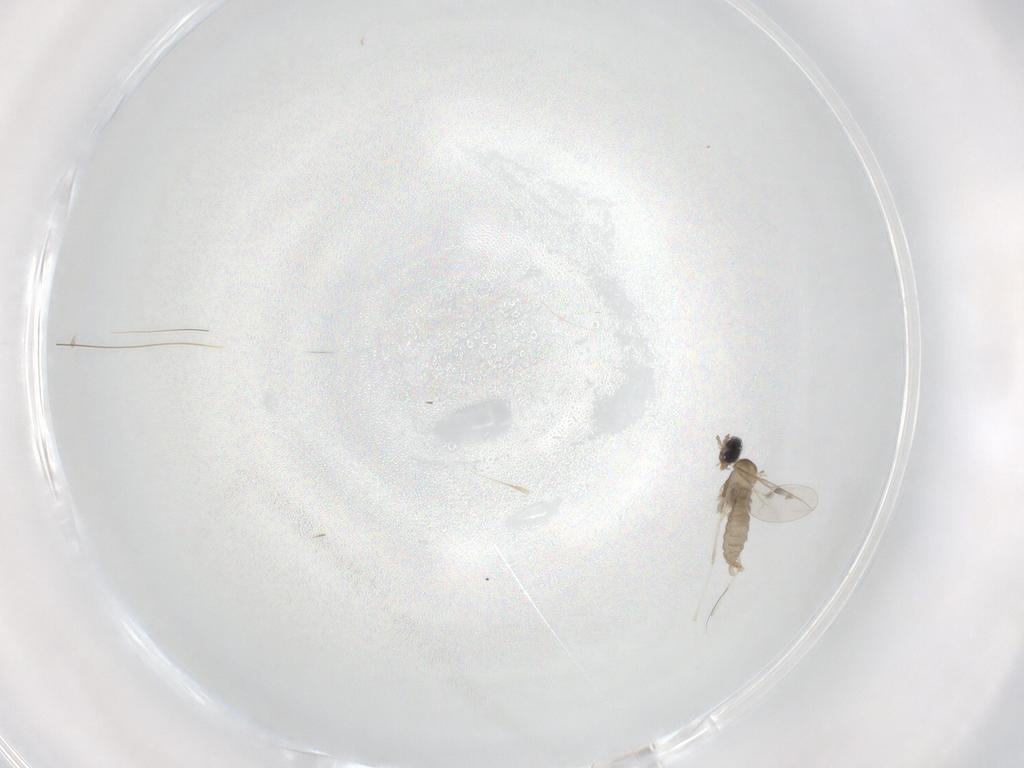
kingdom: Animalia
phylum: Arthropoda
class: Insecta
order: Diptera
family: Cecidomyiidae
